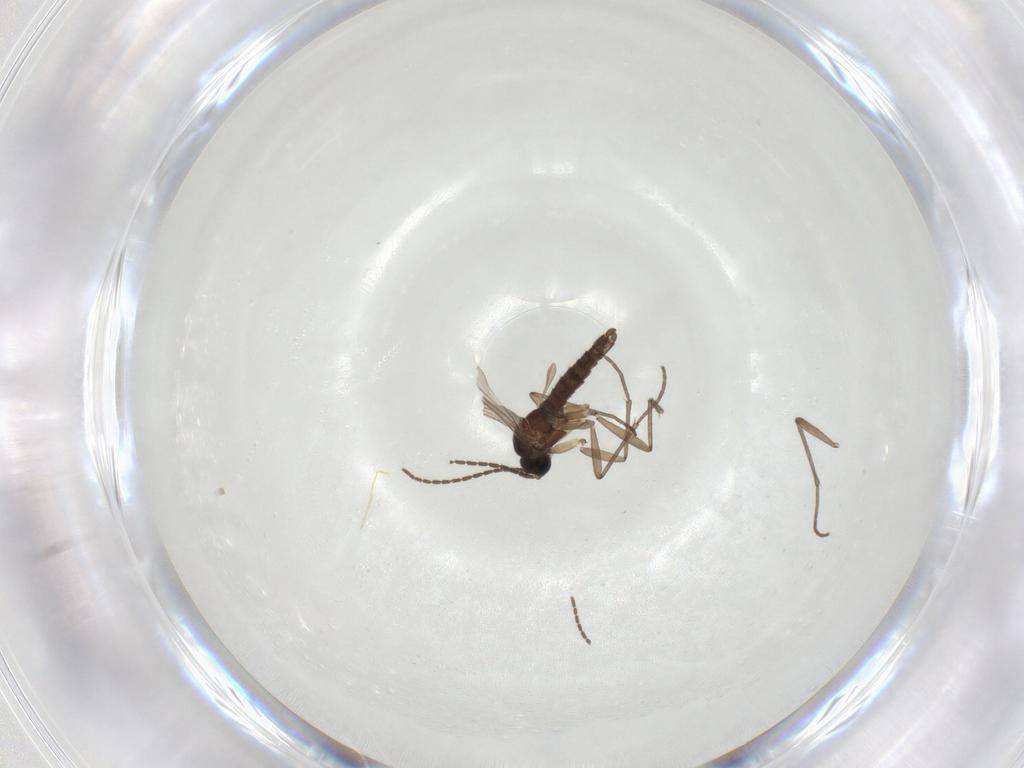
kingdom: Animalia
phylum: Arthropoda
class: Insecta
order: Diptera
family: Sciaridae
